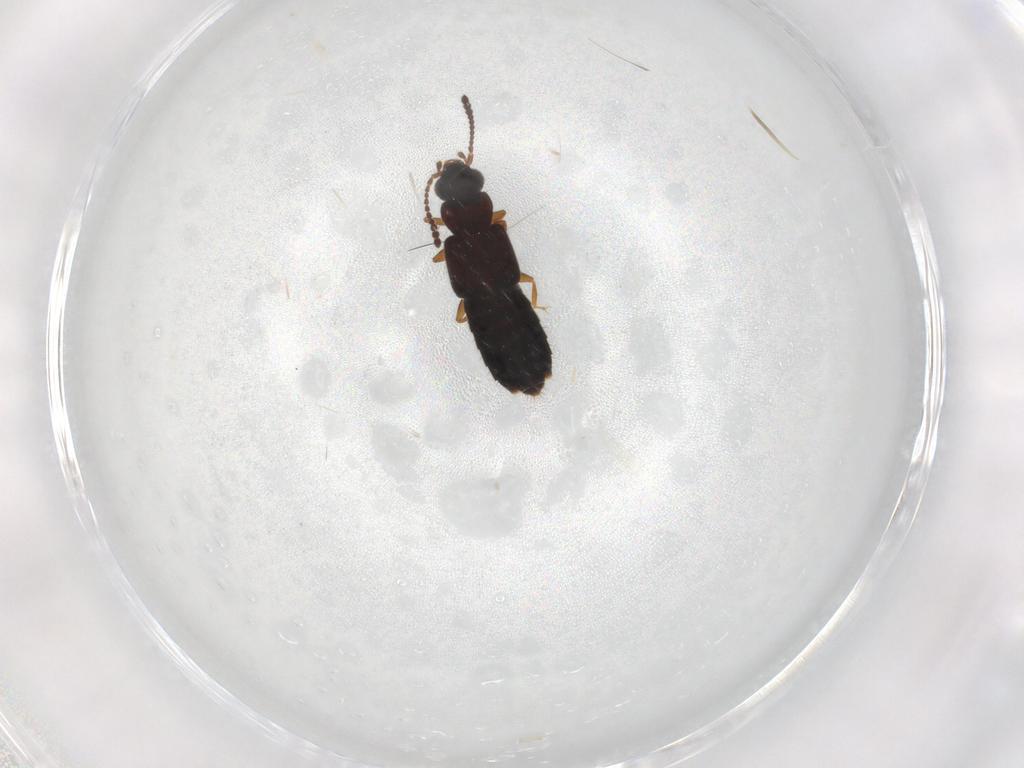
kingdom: Animalia
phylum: Arthropoda
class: Insecta
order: Coleoptera
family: Staphylinidae
